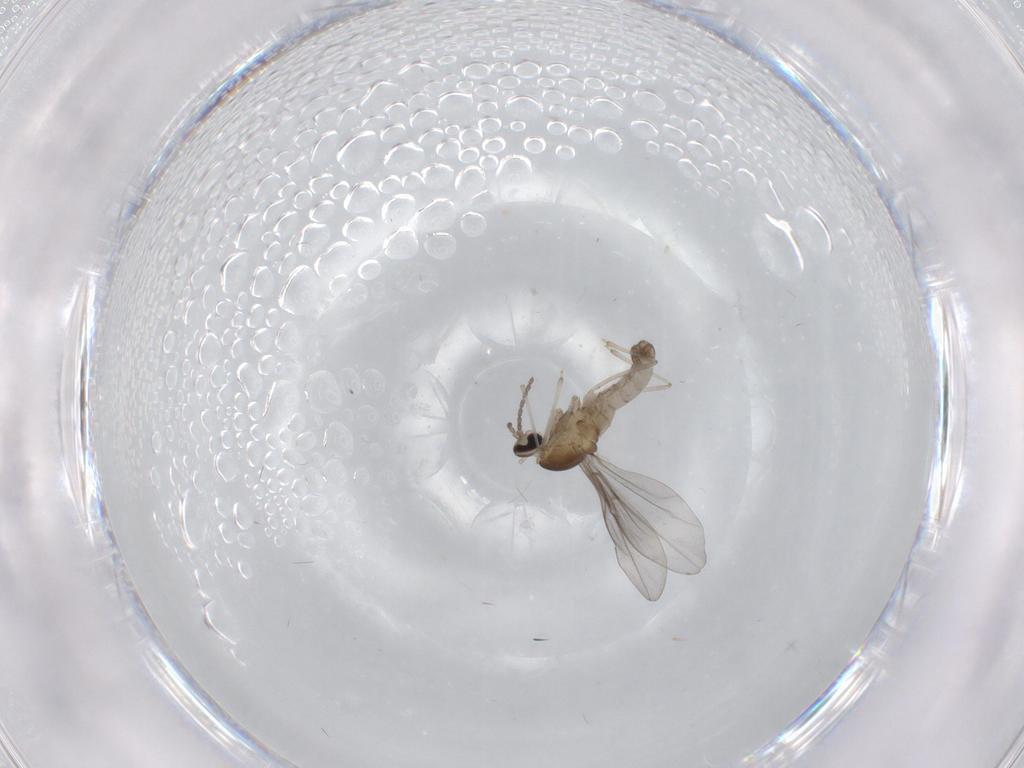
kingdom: Animalia
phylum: Arthropoda
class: Insecta
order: Diptera
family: Cecidomyiidae
